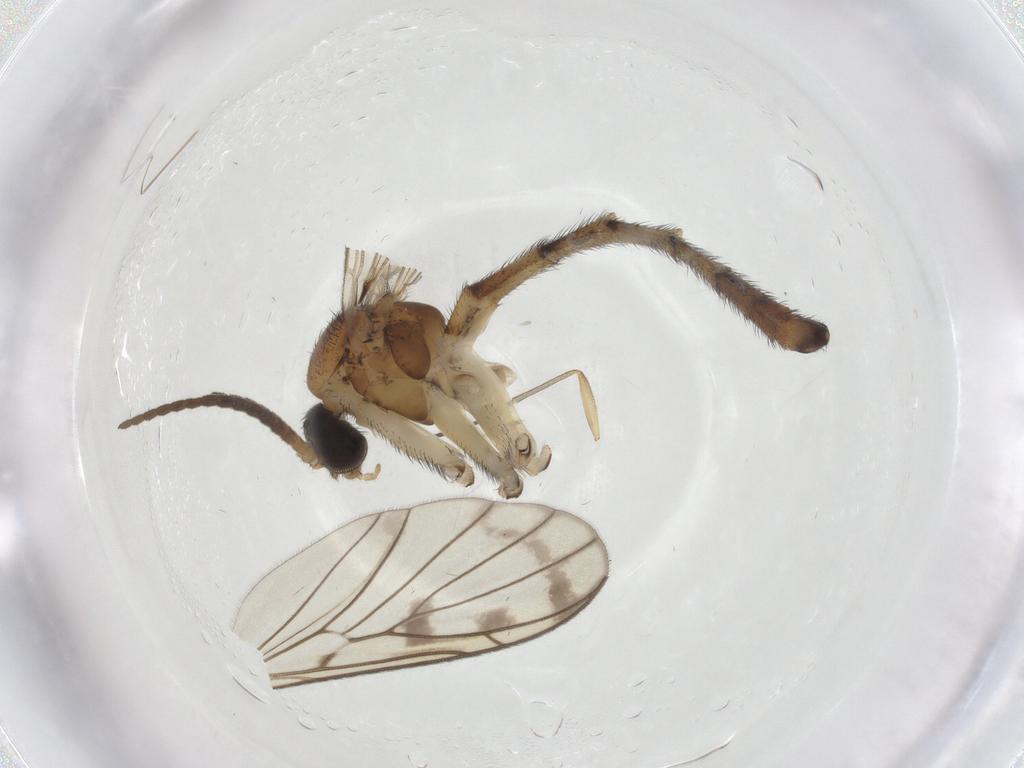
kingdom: Animalia
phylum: Arthropoda
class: Insecta
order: Diptera
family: Keroplatidae
